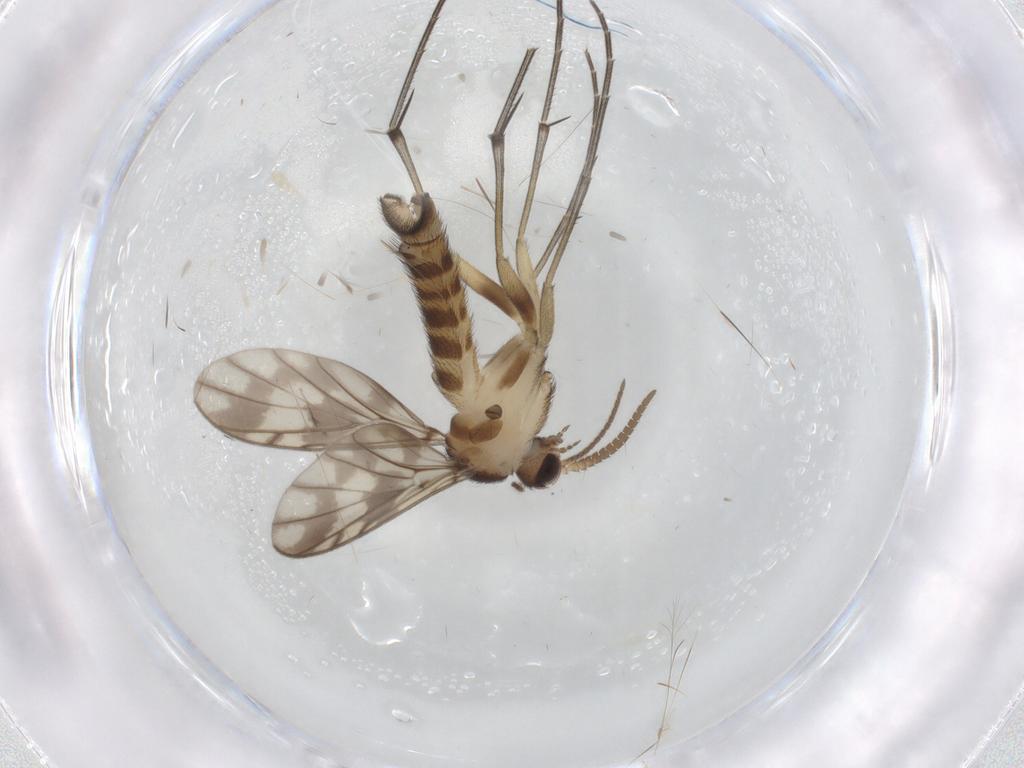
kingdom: Animalia
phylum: Arthropoda
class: Insecta
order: Diptera
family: Keroplatidae
